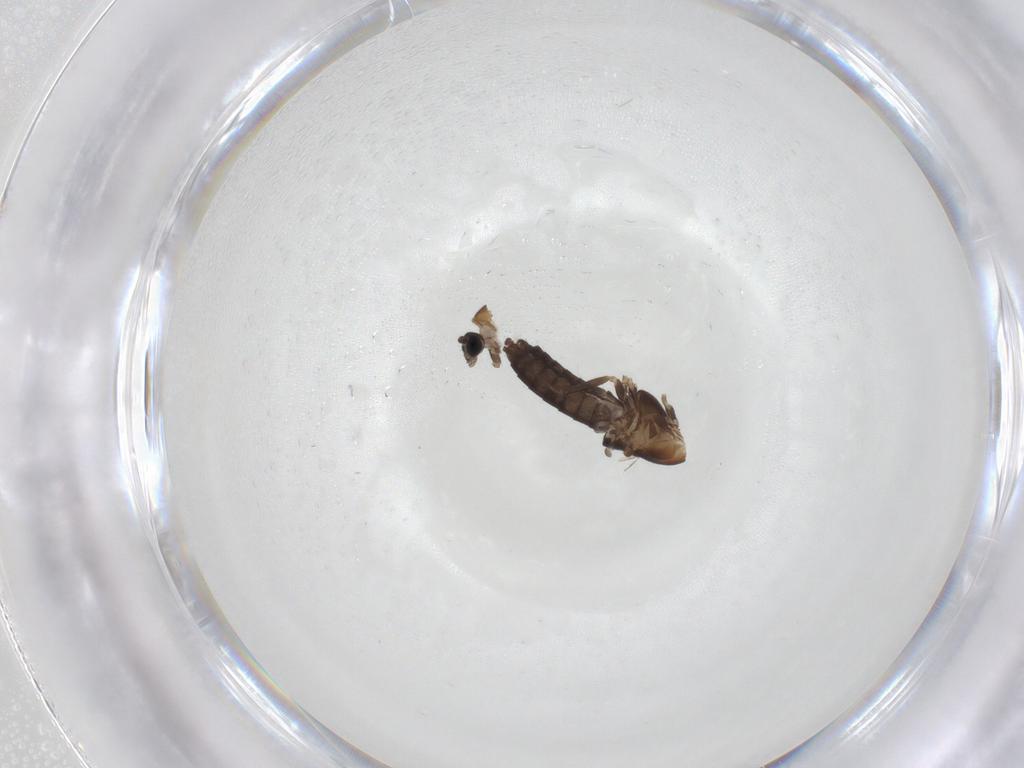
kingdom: Animalia
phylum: Arthropoda
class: Insecta
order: Diptera
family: Chironomidae
